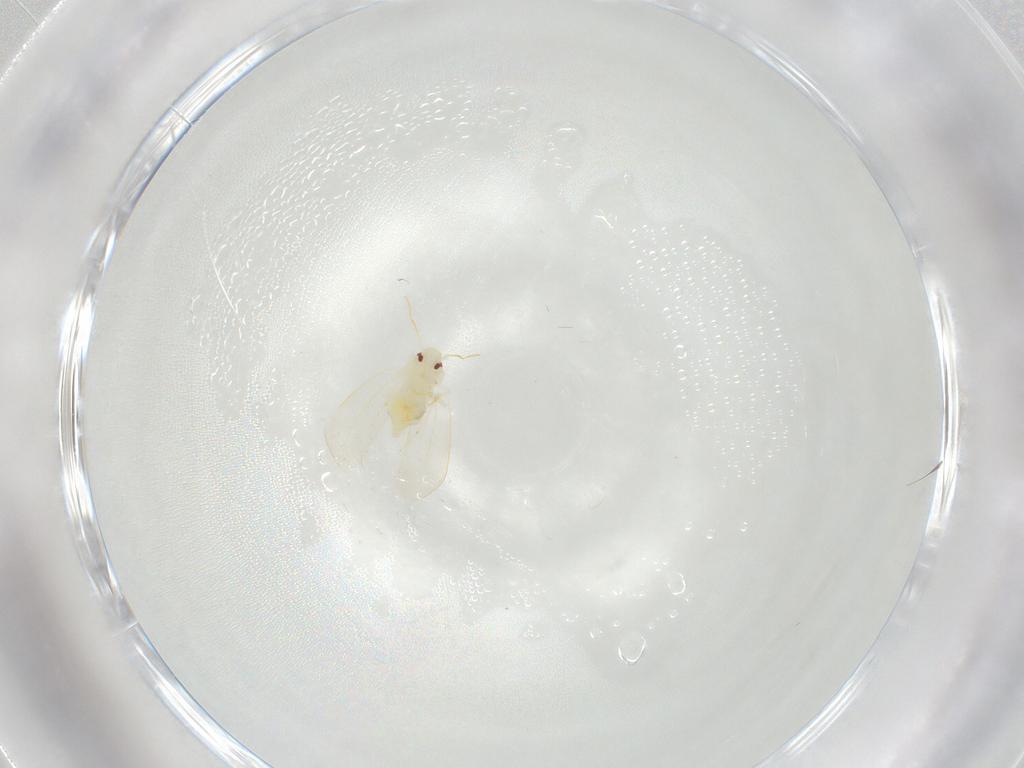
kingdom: Animalia
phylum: Arthropoda
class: Insecta
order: Hemiptera
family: Aleyrodidae
